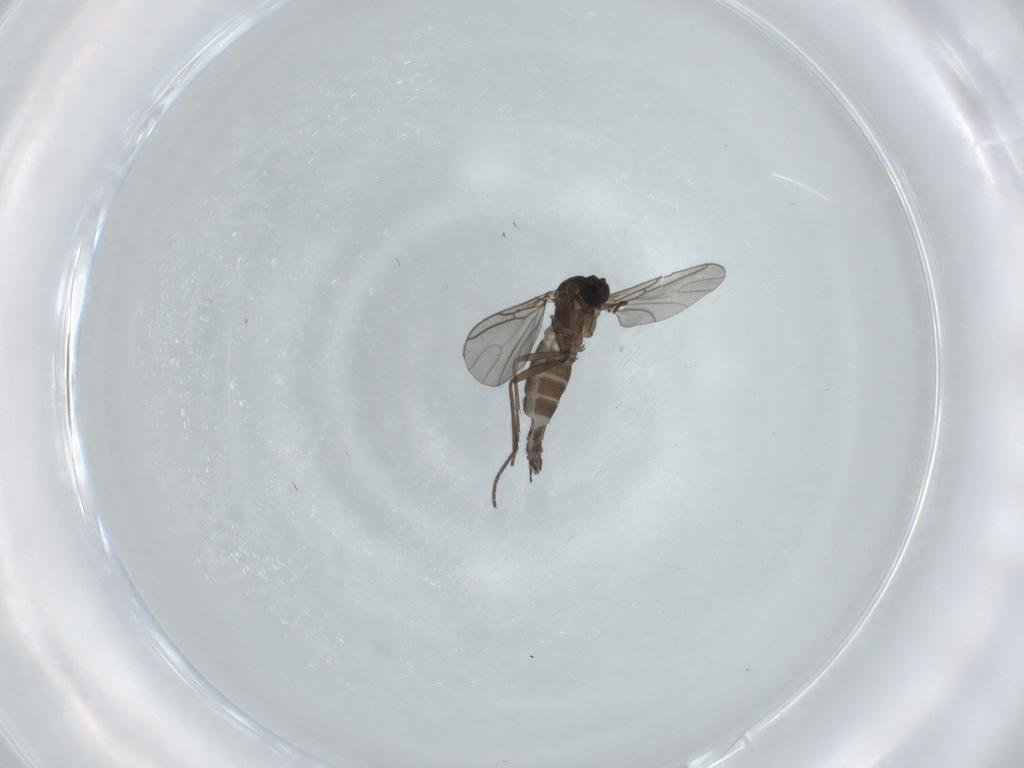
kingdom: Animalia
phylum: Arthropoda
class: Insecta
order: Diptera
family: Sciaridae
